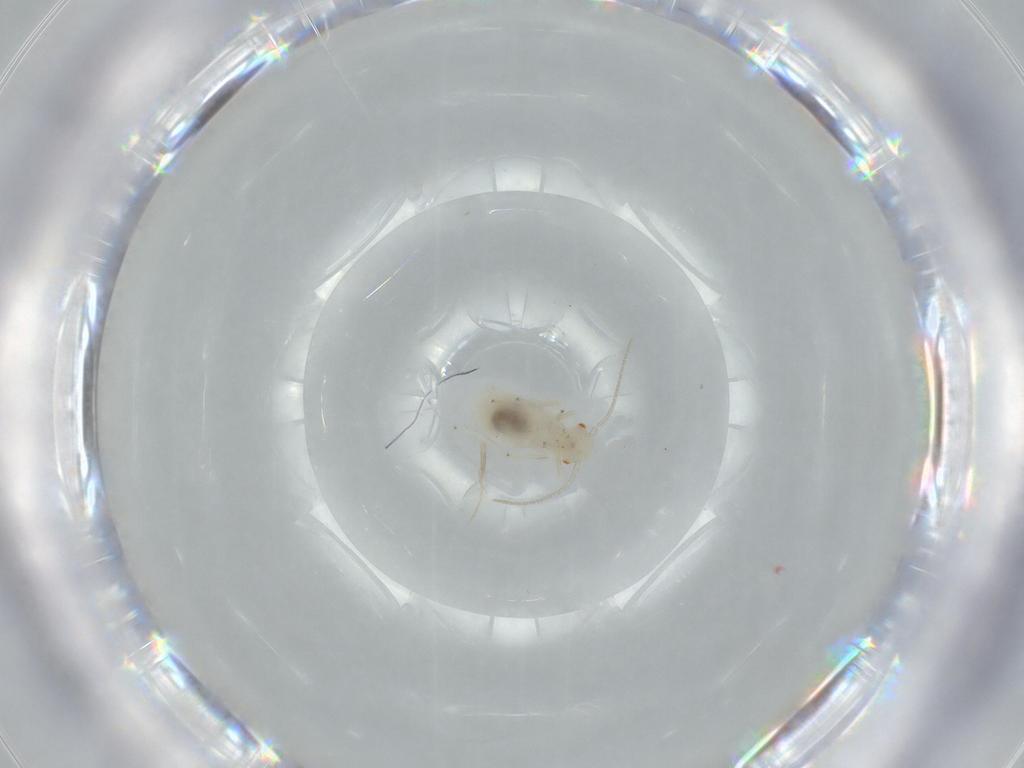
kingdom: Animalia
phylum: Arthropoda
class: Insecta
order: Psocodea
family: Caeciliusidae
